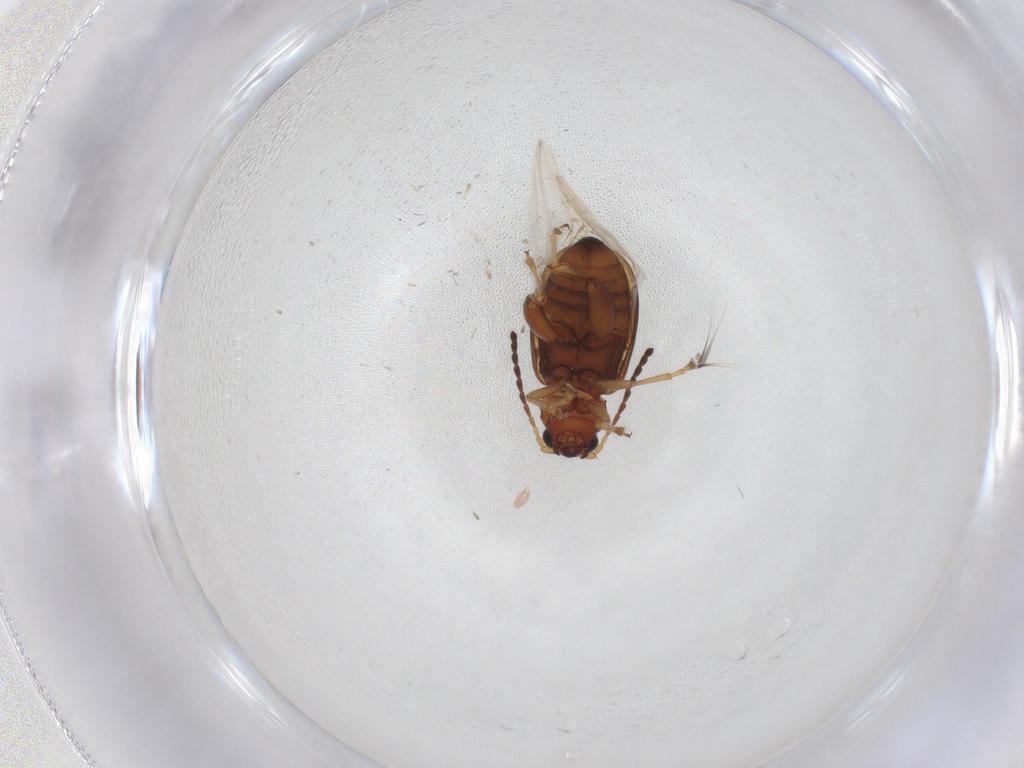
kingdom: Animalia
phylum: Arthropoda
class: Insecta
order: Coleoptera
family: Chrysomelidae
